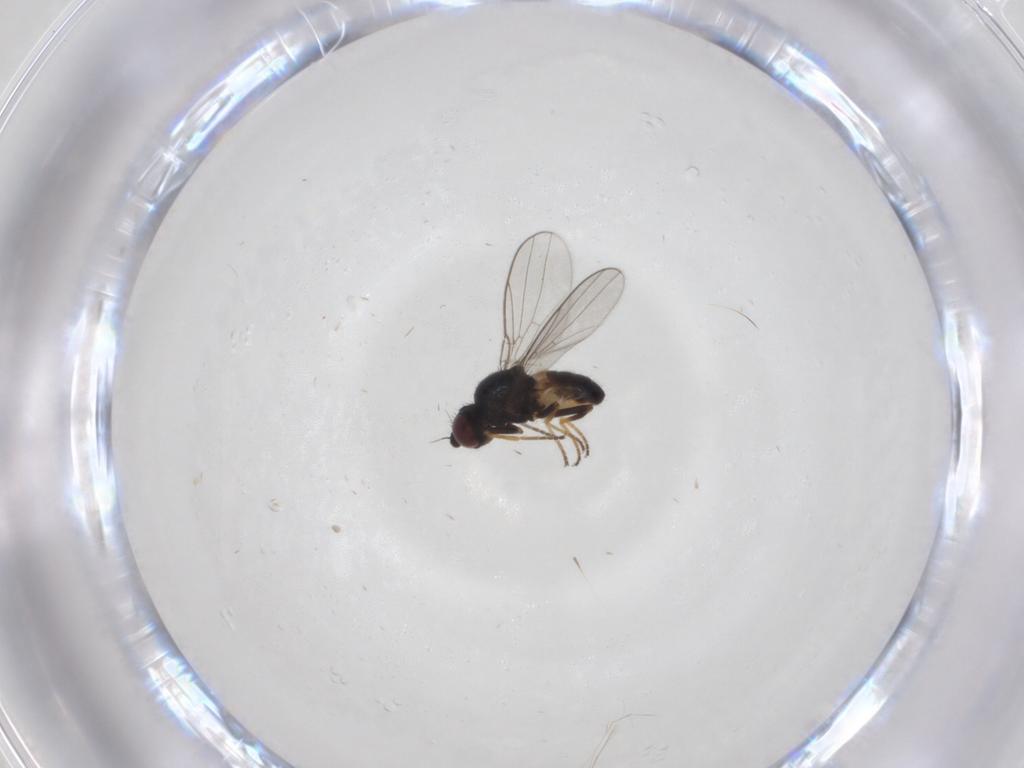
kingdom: Animalia
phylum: Arthropoda
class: Insecta
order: Diptera
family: Chloropidae
